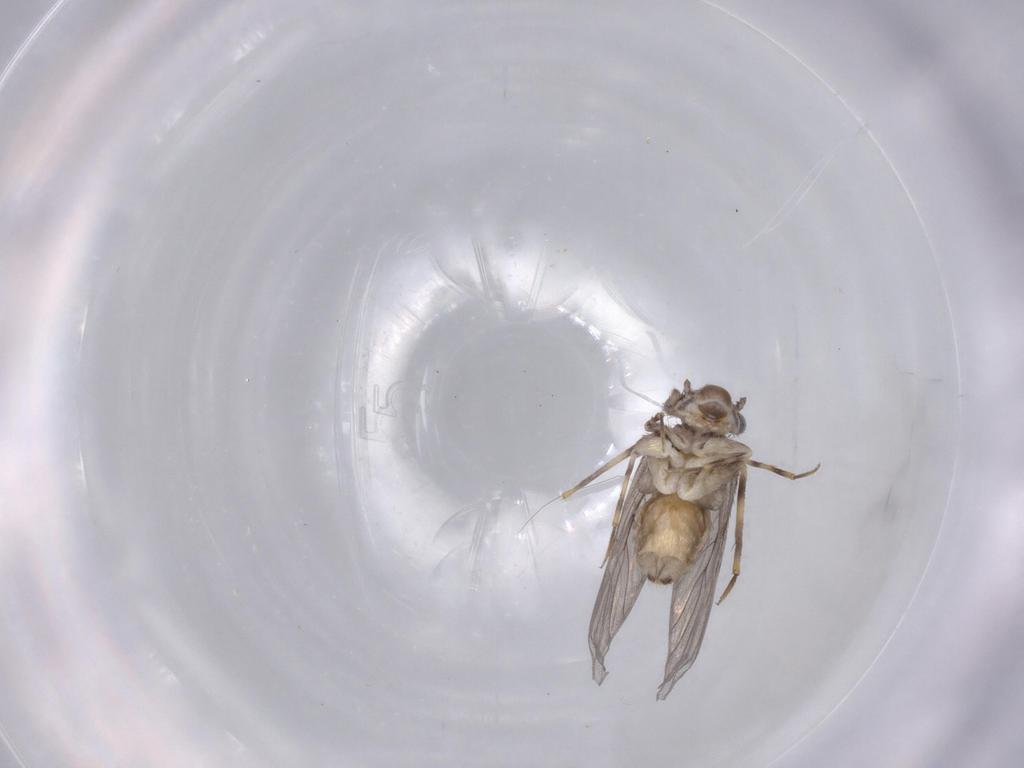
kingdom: Animalia
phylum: Arthropoda
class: Insecta
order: Psocodea
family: Lepidopsocidae
